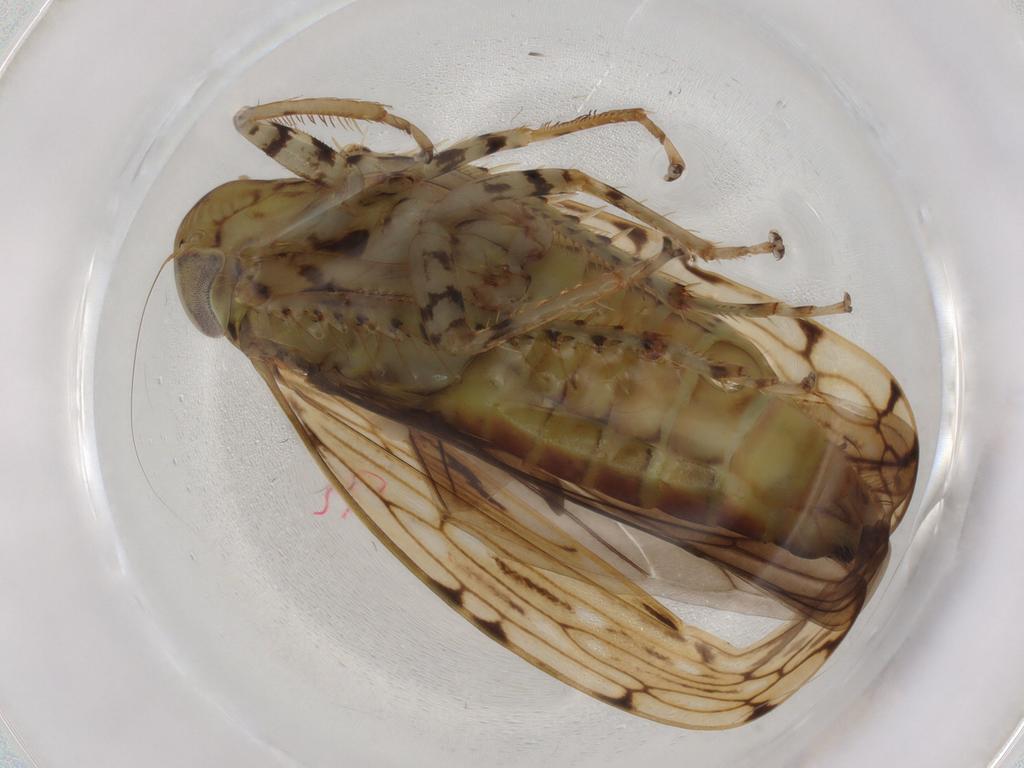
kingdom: Animalia
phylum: Arthropoda
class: Insecta
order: Hemiptera
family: Cicadellidae
